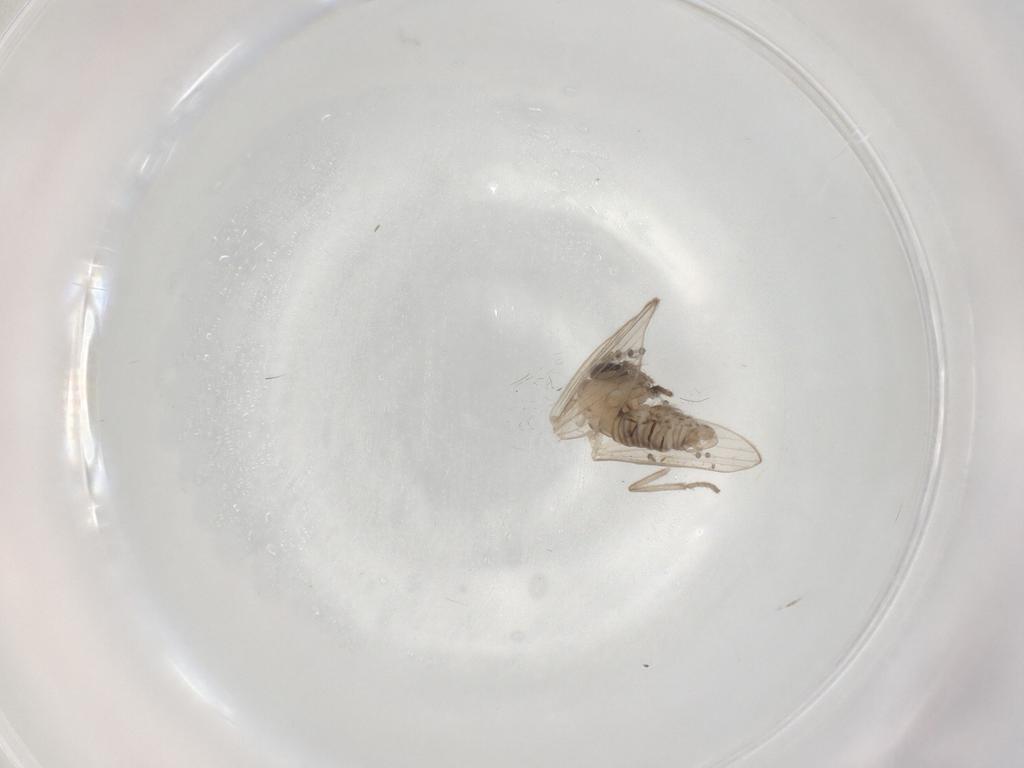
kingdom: Animalia
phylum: Arthropoda
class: Insecta
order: Diptera
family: Psychodidae
